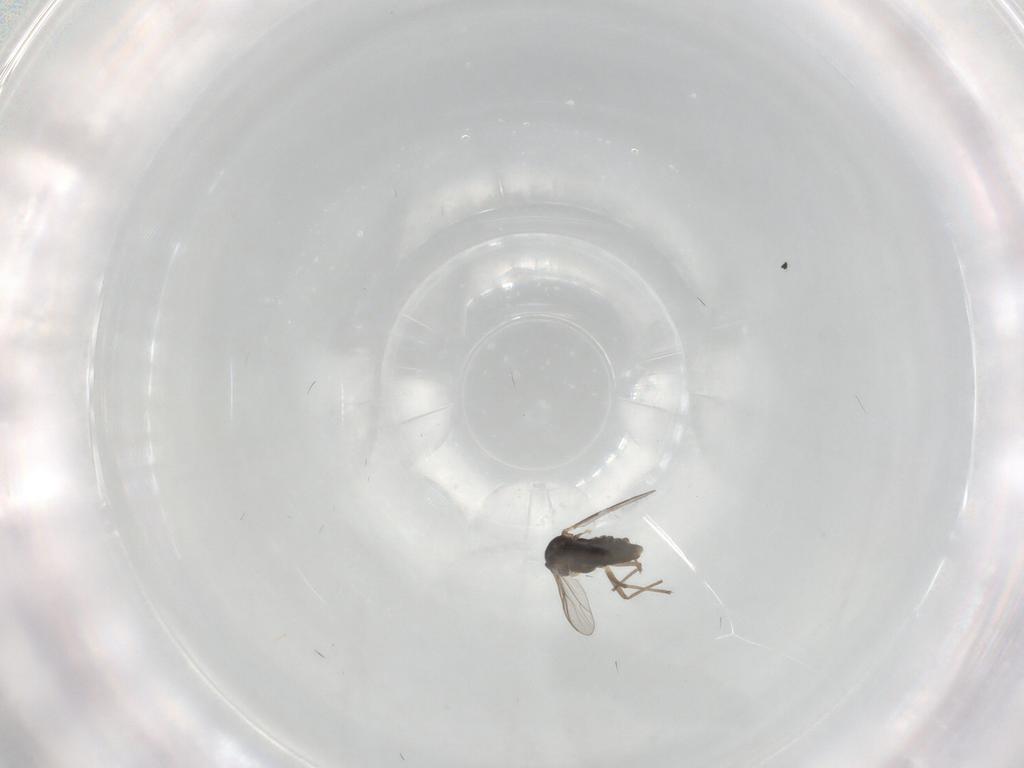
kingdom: Animalia
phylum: Arthropoda
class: Insecta
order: Diptera
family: Chironomidae
